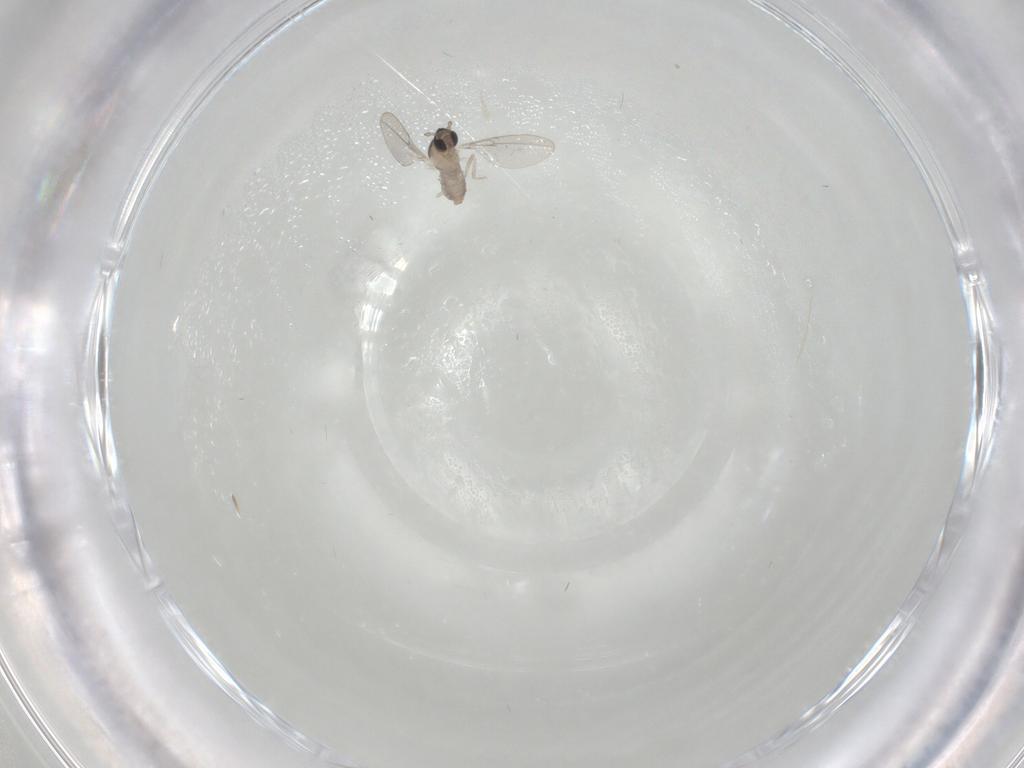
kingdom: Animalia
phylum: Arthropoda
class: Insecta
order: Diptera
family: Cecidomyiidae
